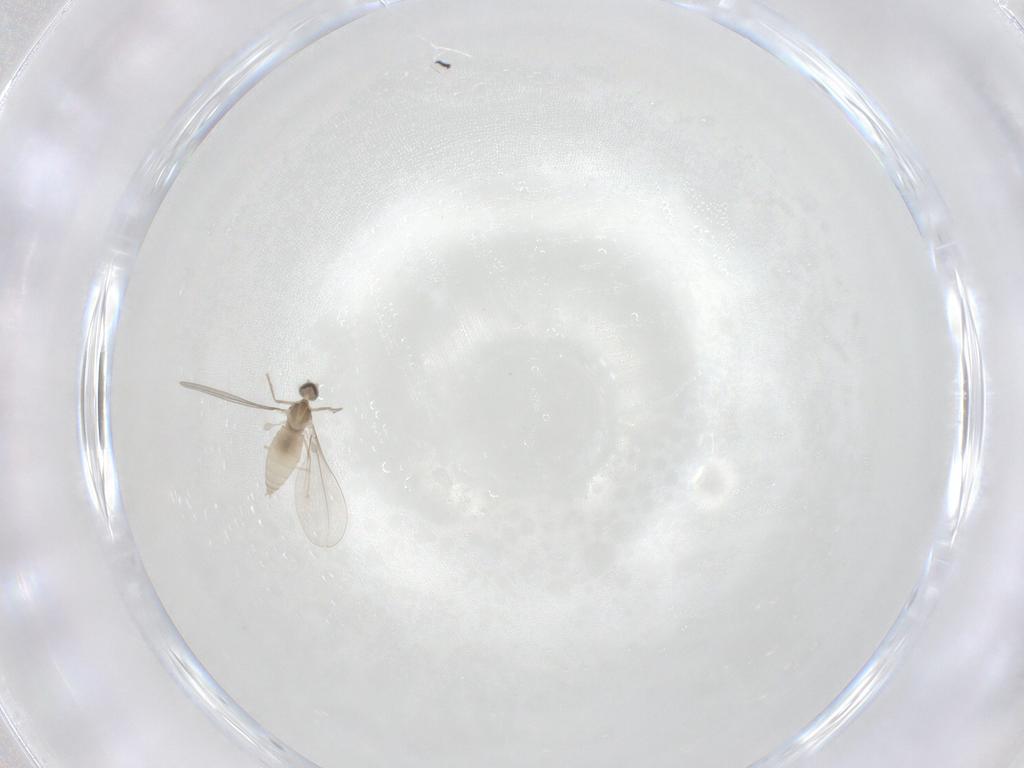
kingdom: Animalia
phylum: Arthropoda
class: Insecta
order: Diptera
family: Cecidomyiidae
